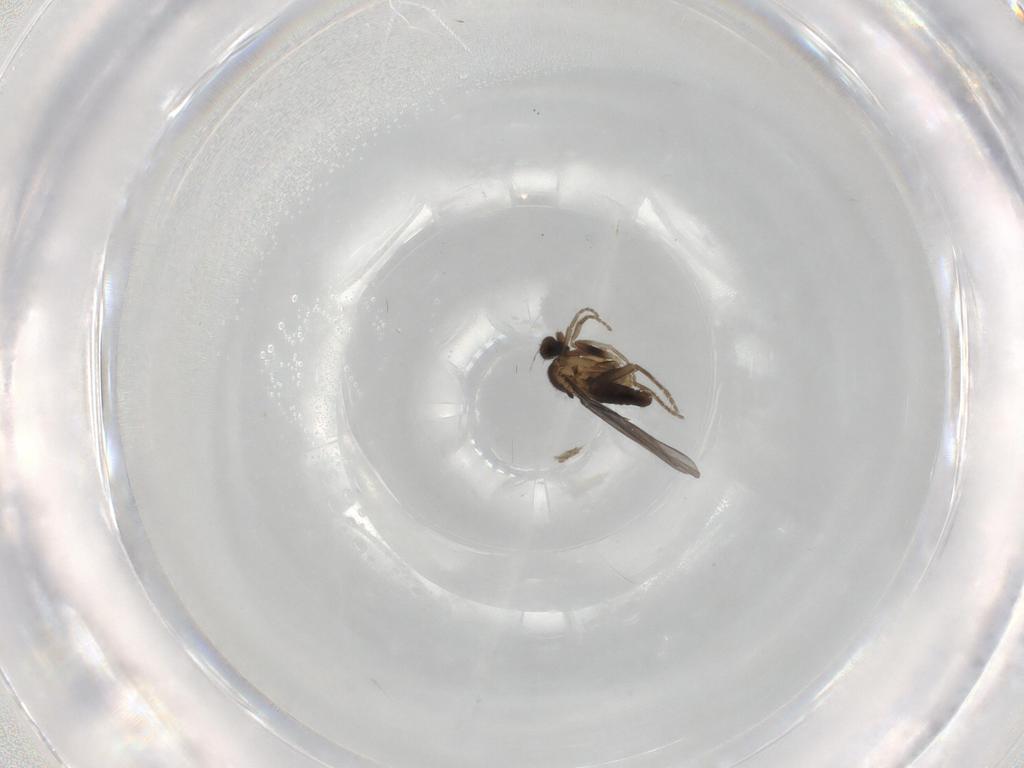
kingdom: Animalia
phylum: Arthropoda
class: Insecta
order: Diptera
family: Phoridae
